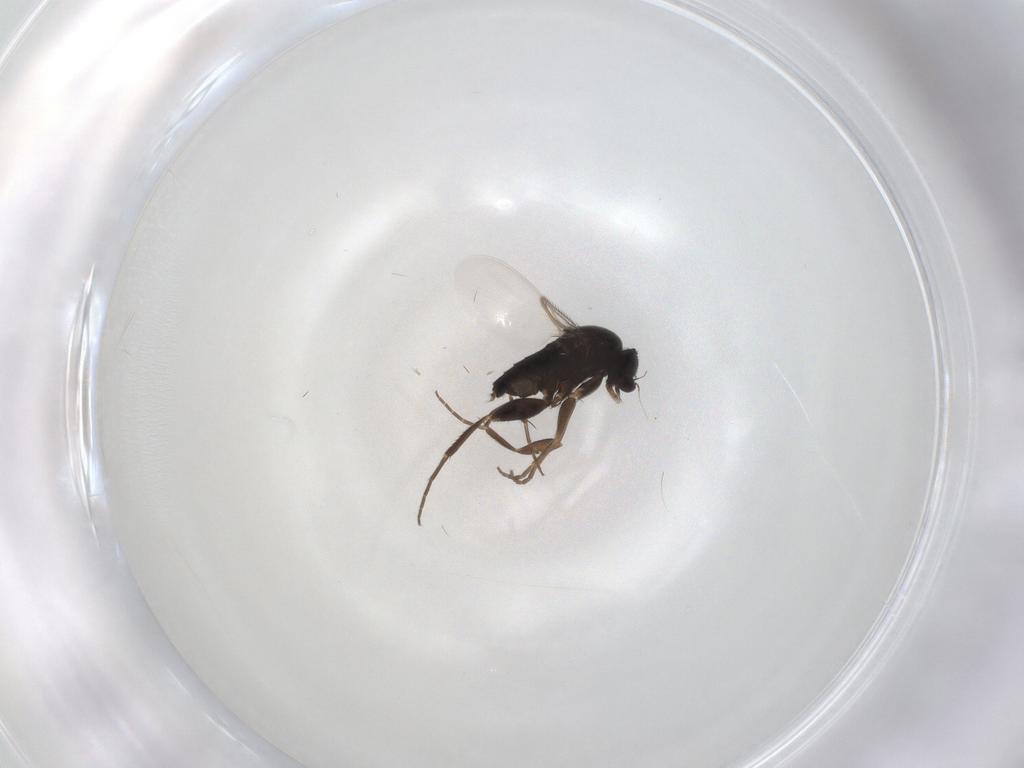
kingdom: Animalia
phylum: Arthropoda
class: Insecta
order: Diptera
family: Phoridae
